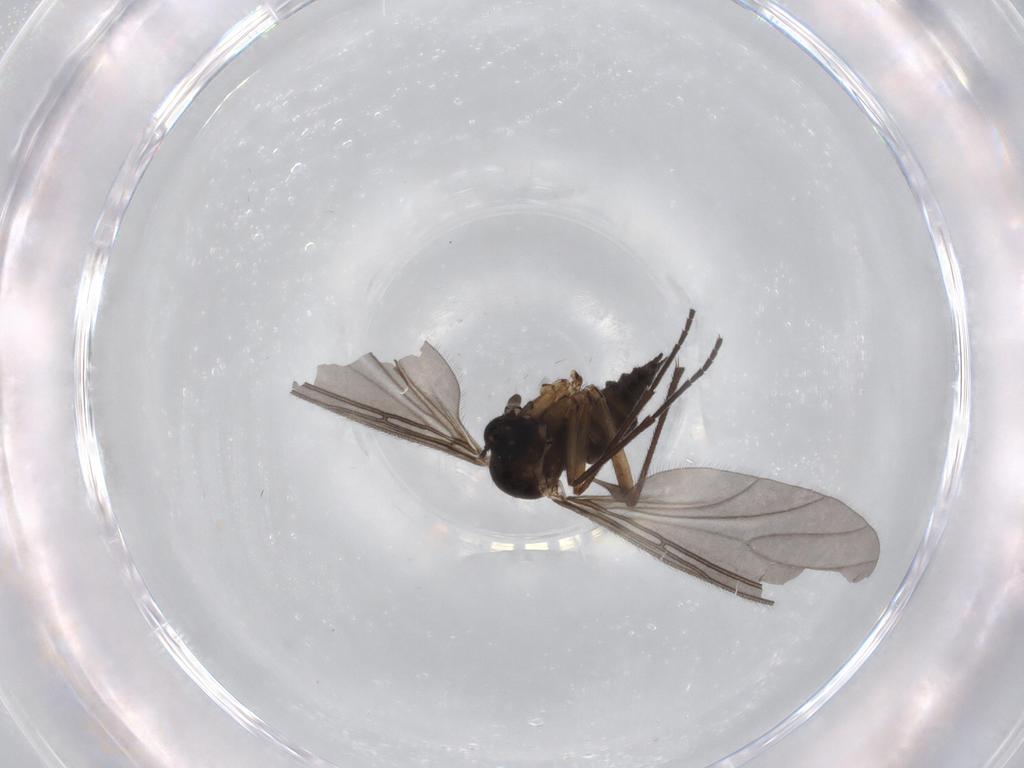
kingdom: Animalia
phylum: Arthropoda
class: Insecta
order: Diptera
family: Sciaridae
